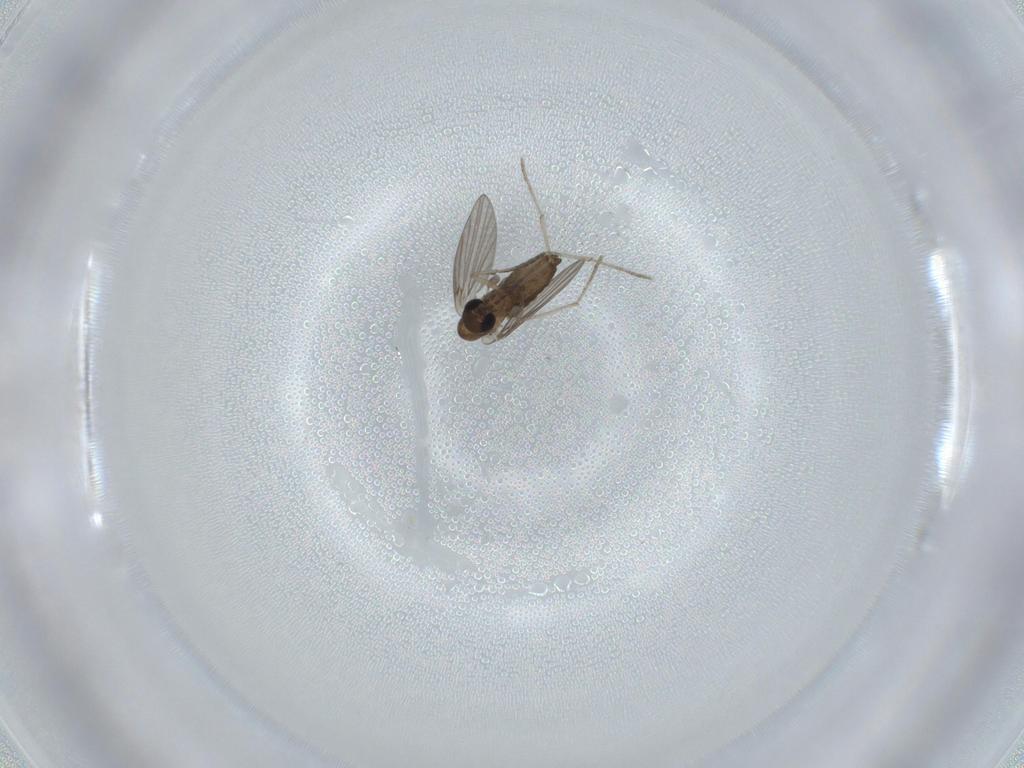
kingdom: Animalia
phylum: Arthropoda
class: Insecta
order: Diptera
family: Psychodidae
